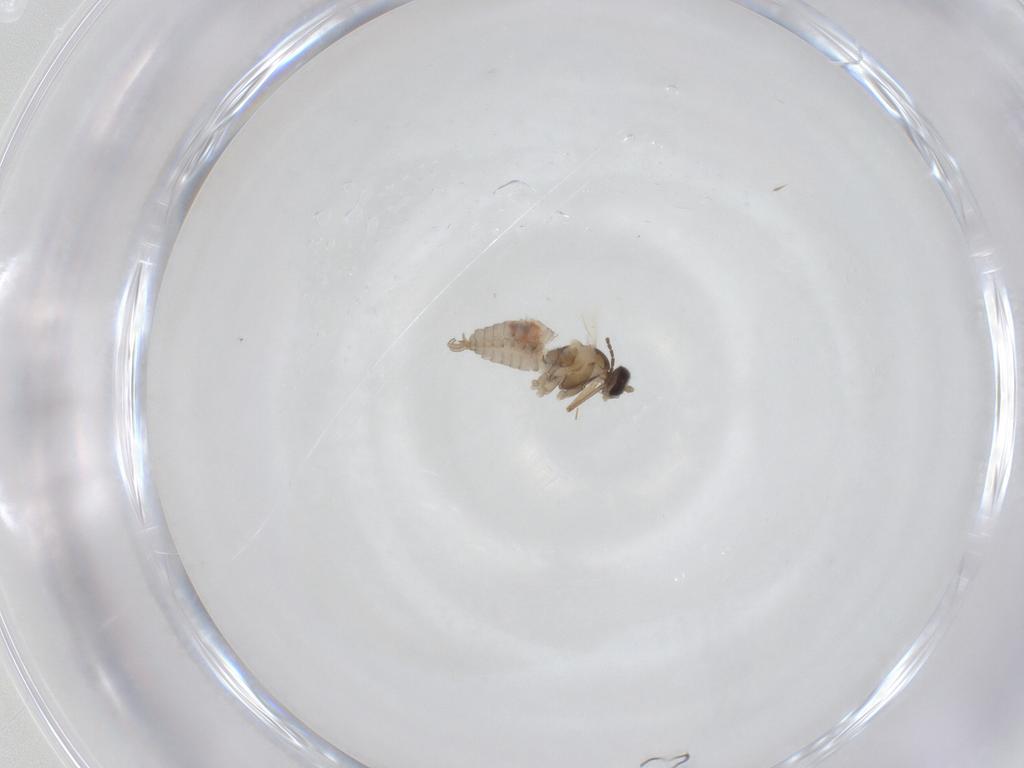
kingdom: Animalia
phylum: Arthropoda
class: Insecta
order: Diptera
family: Cecidomyiidae
